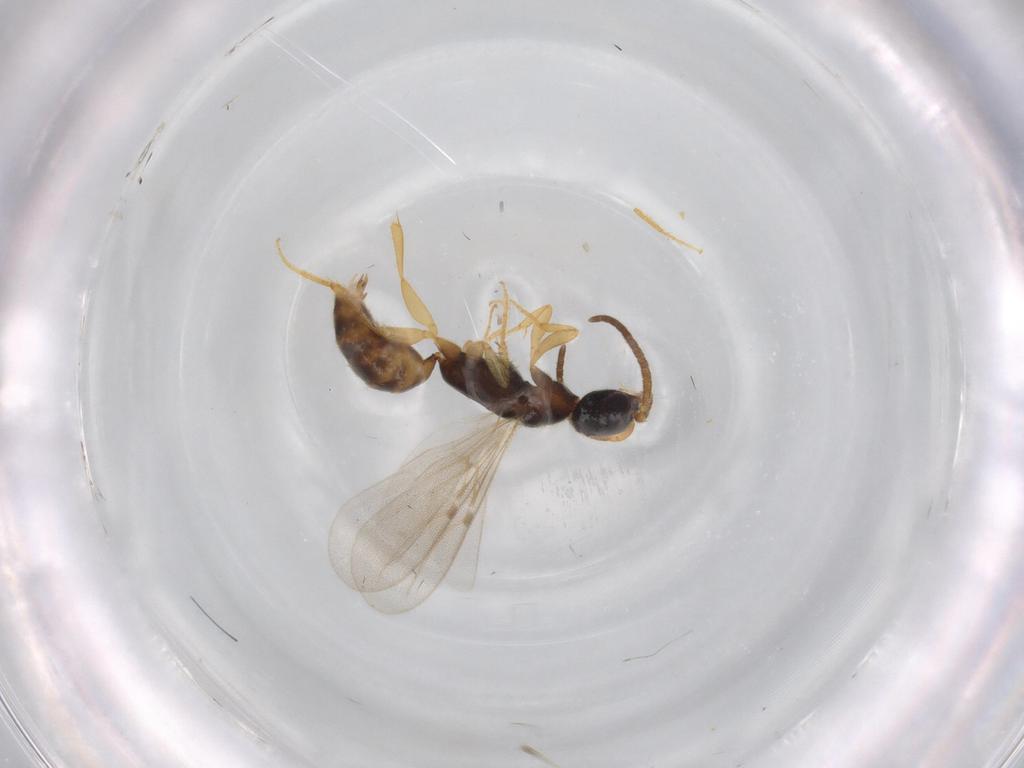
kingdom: Animalia
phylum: Arthropoda
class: Insecta
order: Hymenoptera
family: Bethylidae
